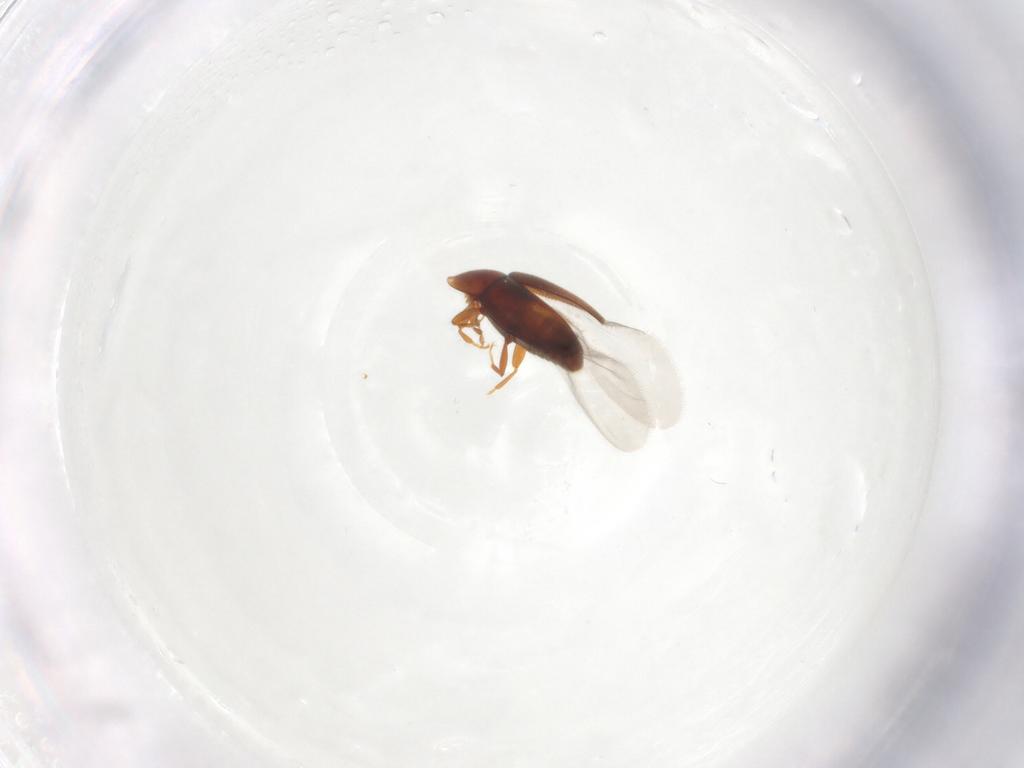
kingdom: Animalia
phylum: Arthropoda
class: Insecta
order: Coleoptera
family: Corylophidae
